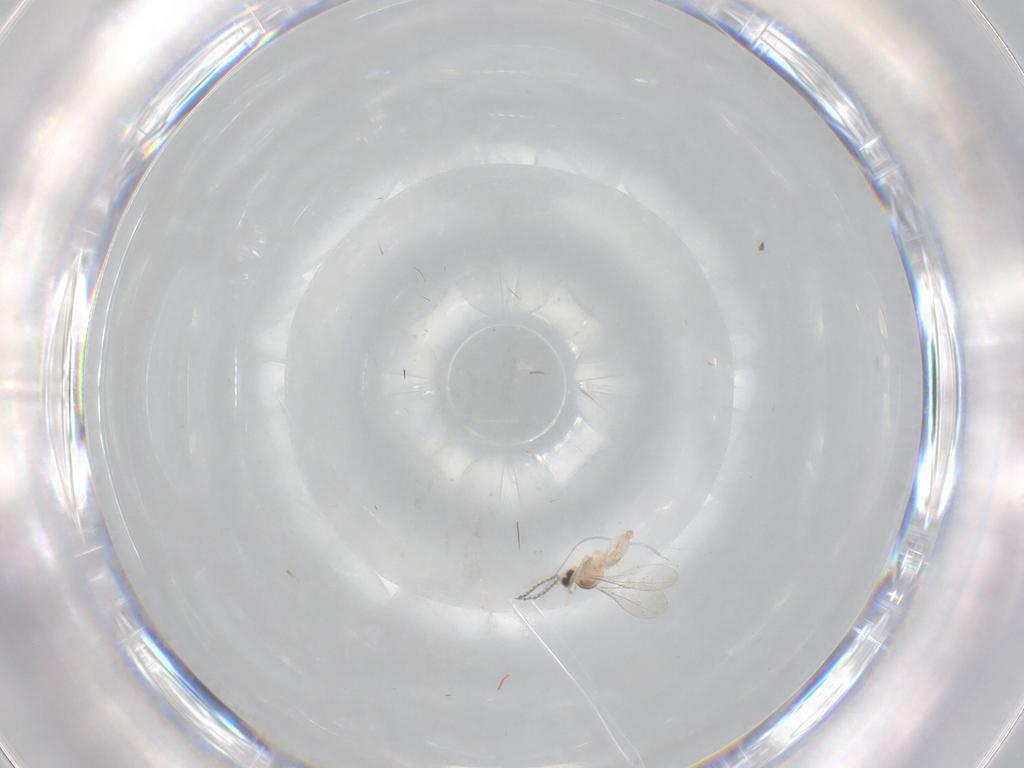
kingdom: Animalia
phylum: Arthropoda
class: Insecta
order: Diptera
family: Cecidomyiidae
